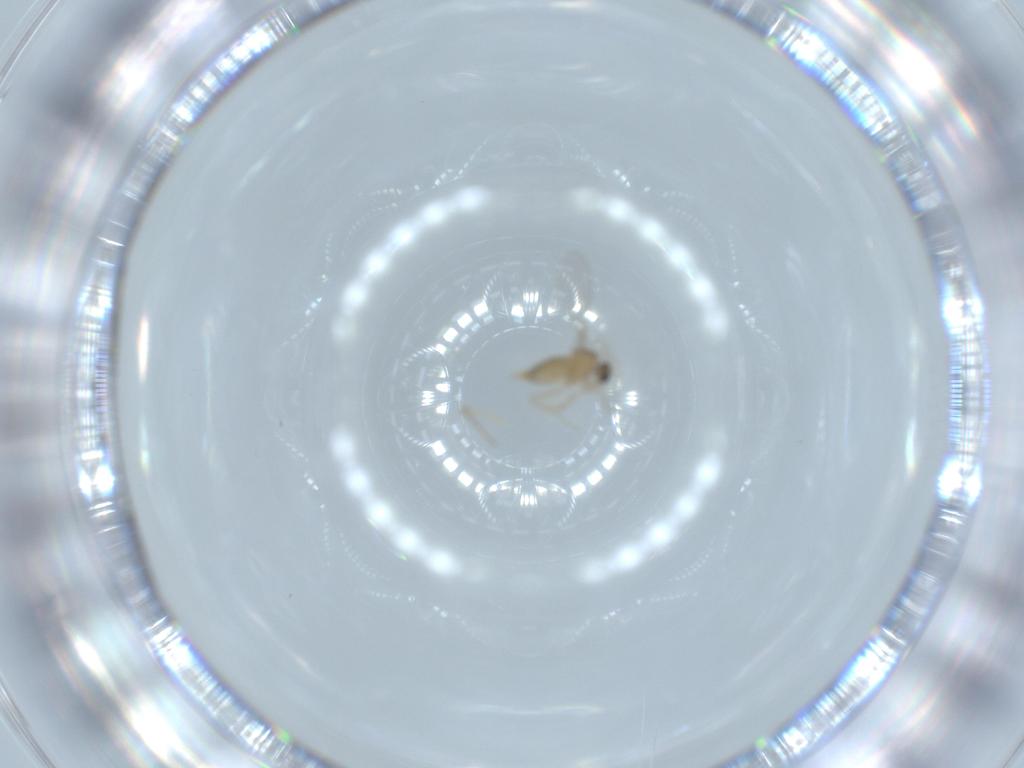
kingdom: Animalia
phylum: Arthropoda
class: Insecta
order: Diptera
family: Cecidomyiidae
